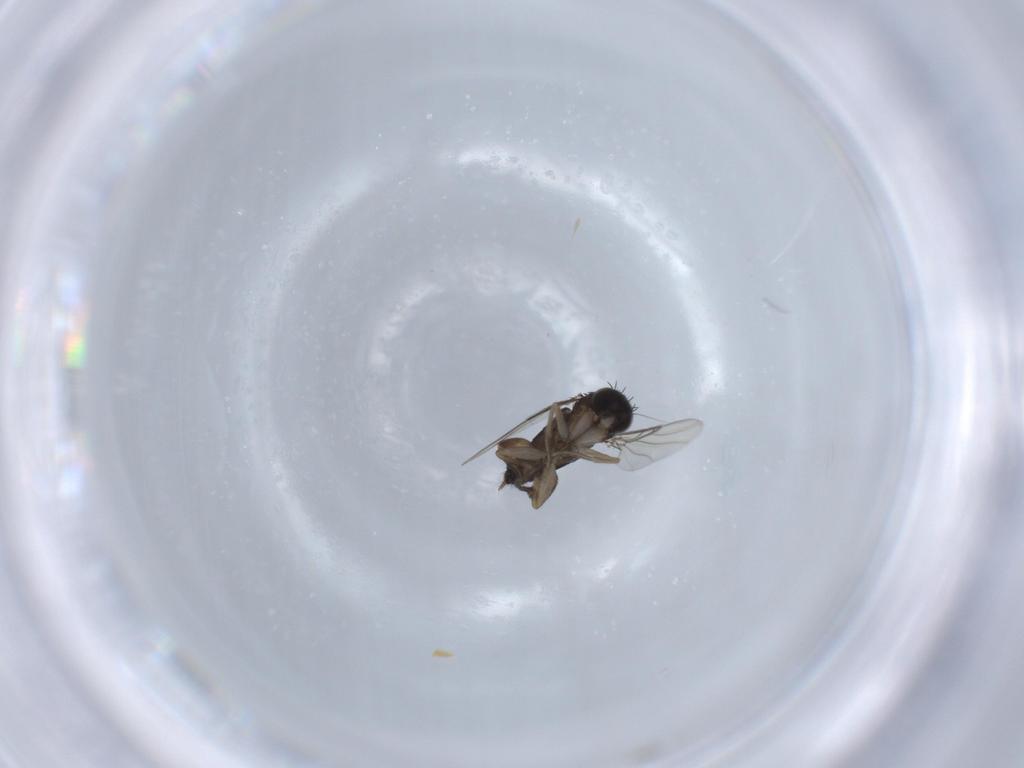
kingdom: Animalia
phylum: Arthropoda
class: Insecta
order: Diptera
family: Phoridae
